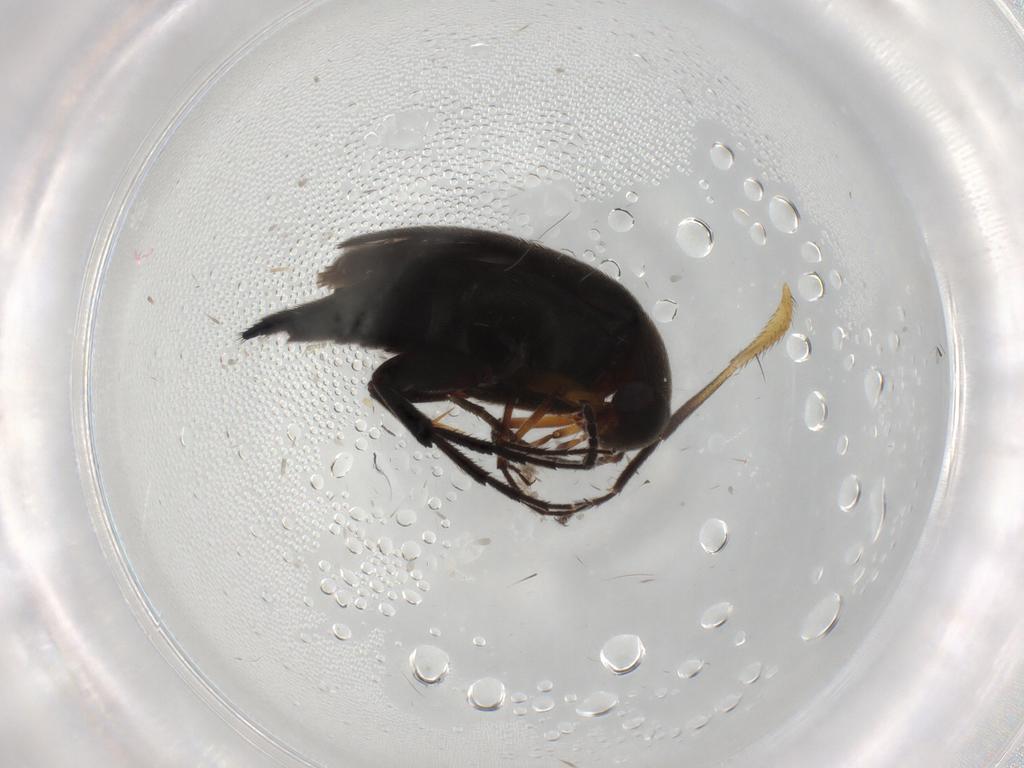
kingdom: Animalia
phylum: Arthropoda
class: Insecta
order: Coleoptera
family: Mordellidae
